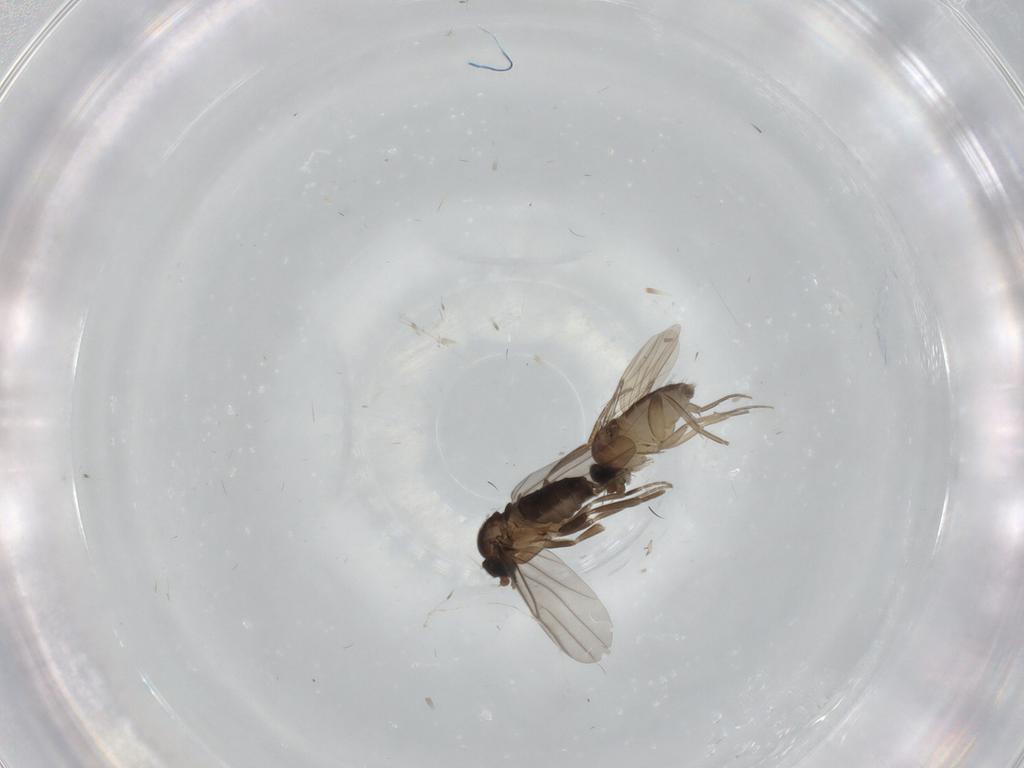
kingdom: Animalia
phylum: Arthropoda
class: Insecta
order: Diptera
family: Phoridae
